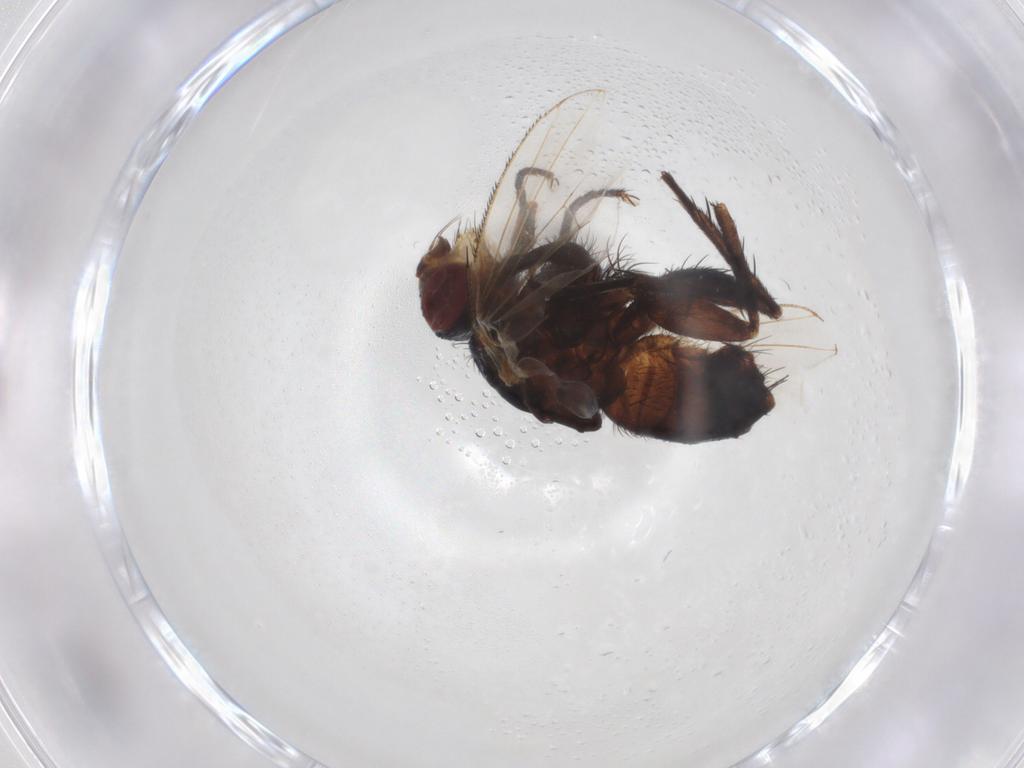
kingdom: Animalia
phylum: Arthropoda
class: Insecta
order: Diptera
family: Calliphoridae
